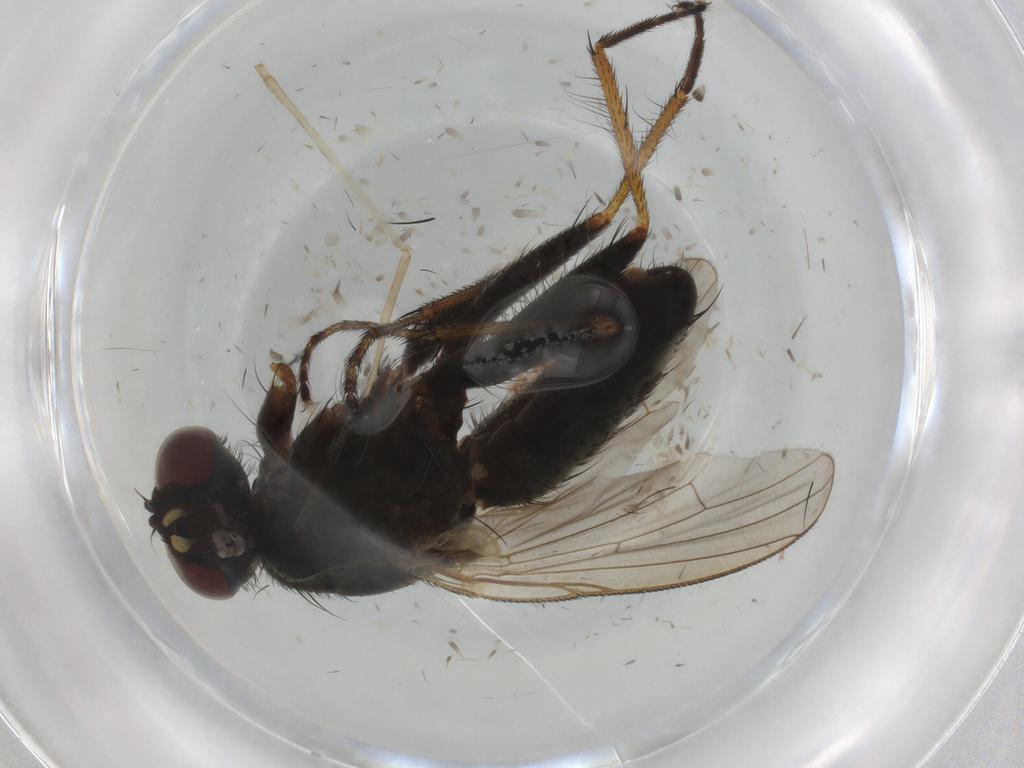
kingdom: Animalia
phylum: Arthropoda
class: Insecta
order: Diptera
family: Muscidae
